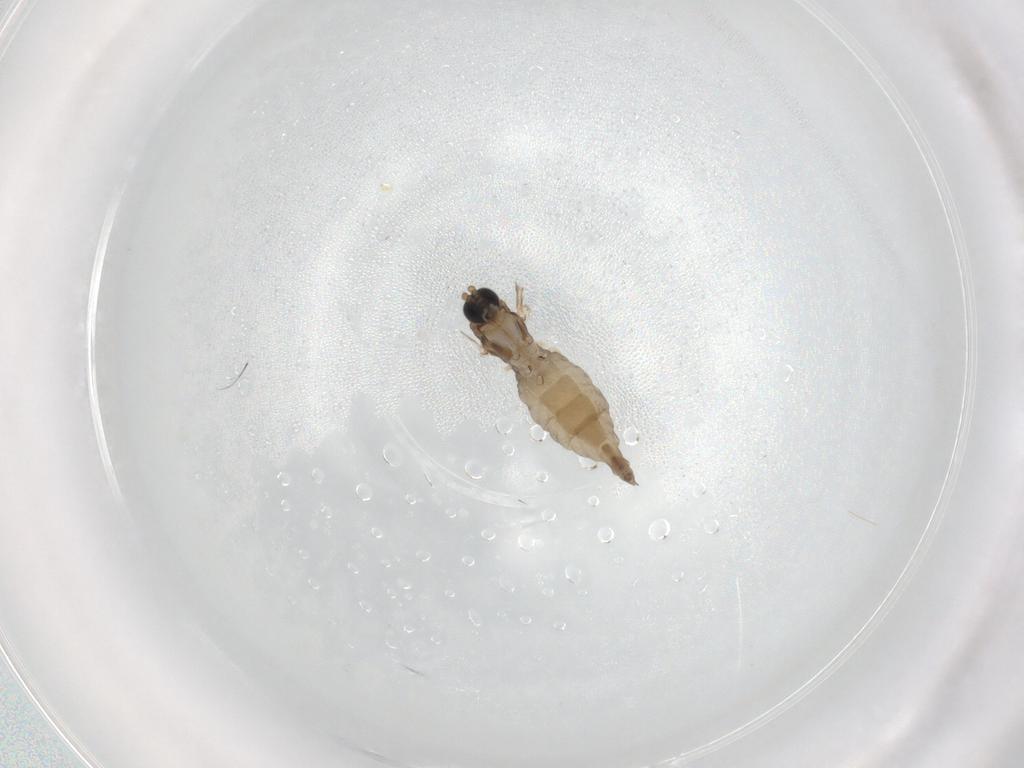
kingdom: Animalia
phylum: Arthropoda
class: Insecta
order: Diptera
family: Sciaridae
